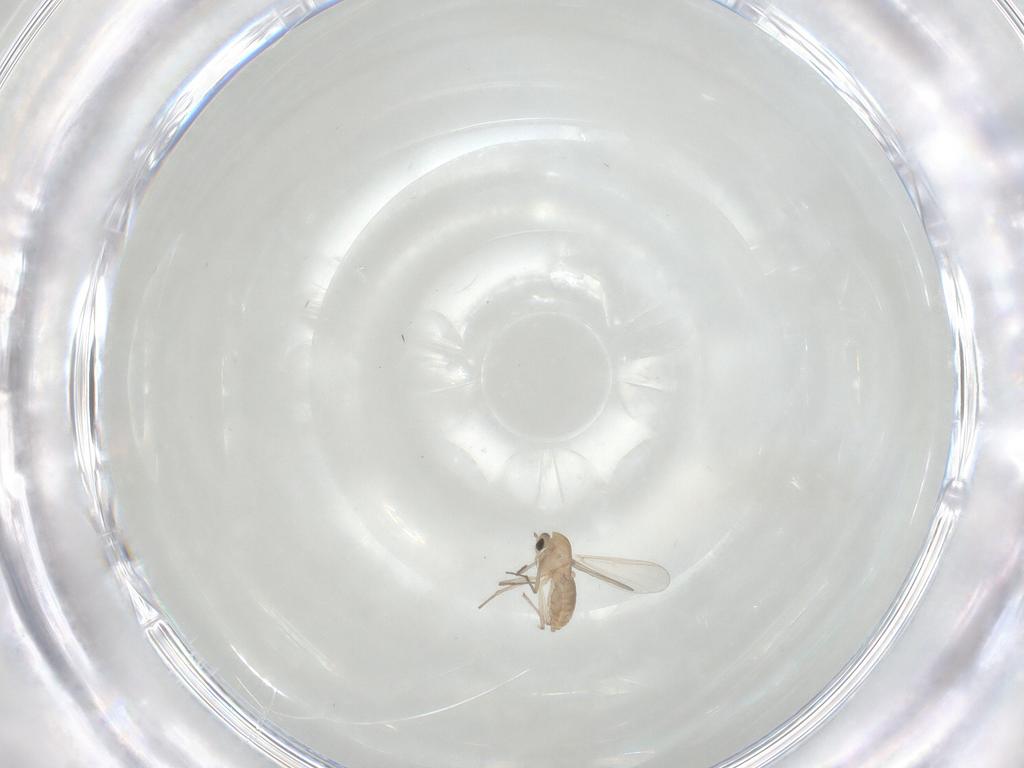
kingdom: Animalia
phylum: Arthropoda
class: Insecta
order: Diptera
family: Chironomidae
